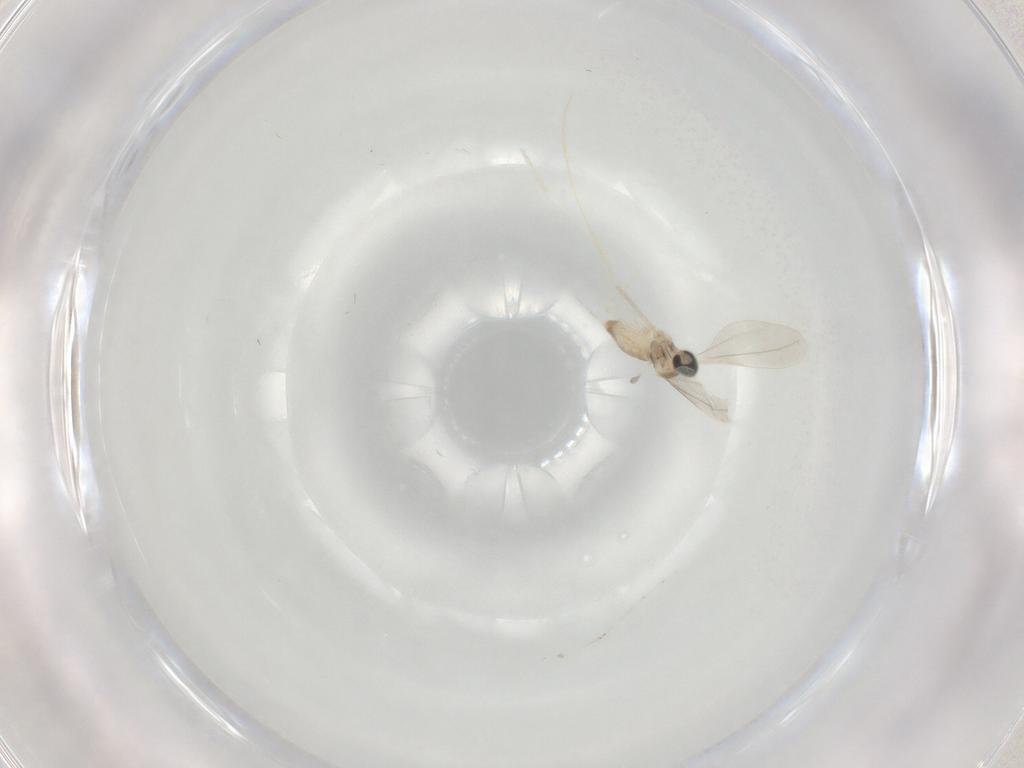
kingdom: Animalia
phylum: Arthropoda
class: Insecta
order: Diptera
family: Cecidomyiidae
